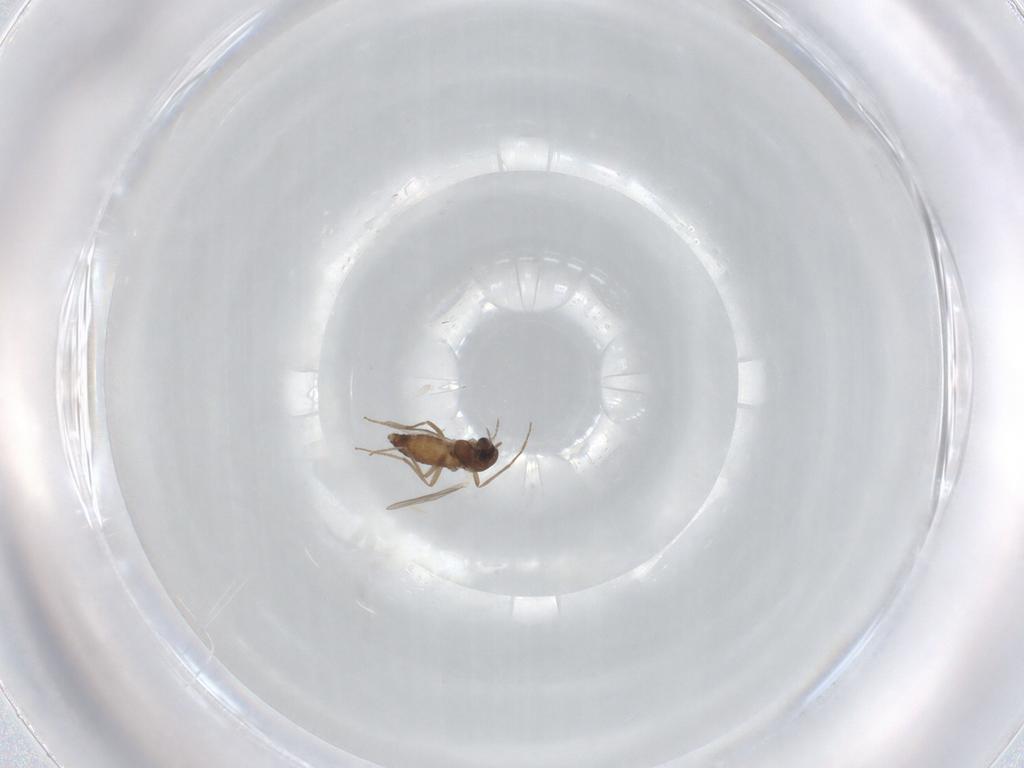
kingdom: Animalia
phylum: Arthropoda
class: Insecta
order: Diptera
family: Chironomidae
